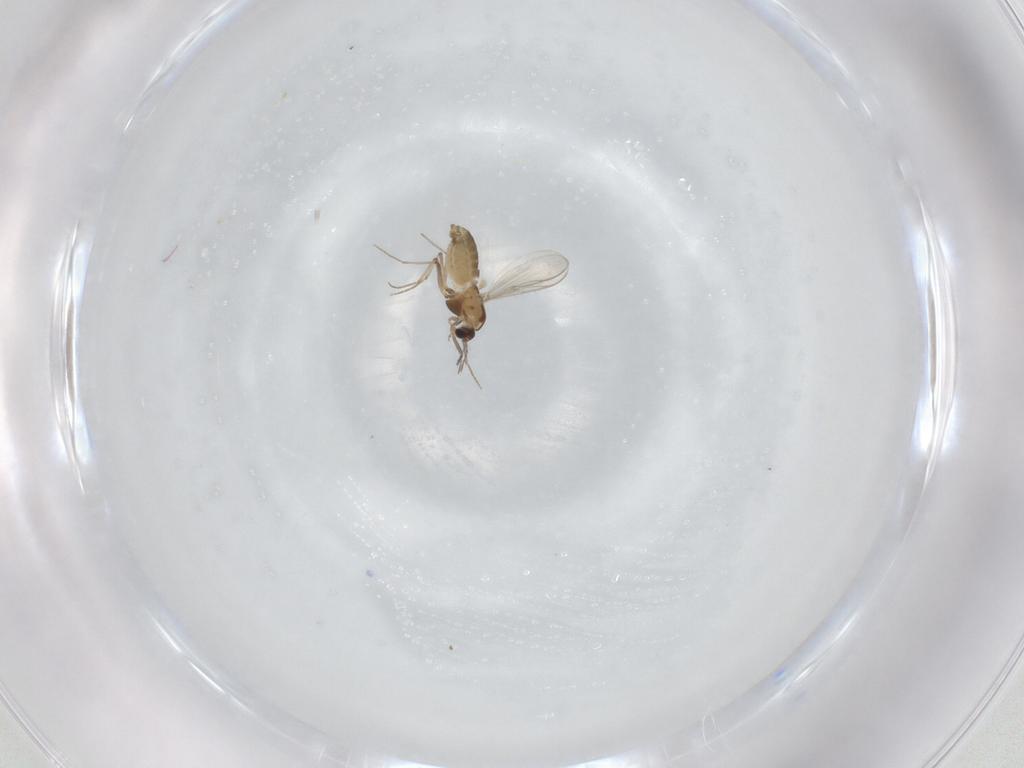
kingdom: Animalia
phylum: Arthropoda
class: Insecta
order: Diptera
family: Chironomidae
